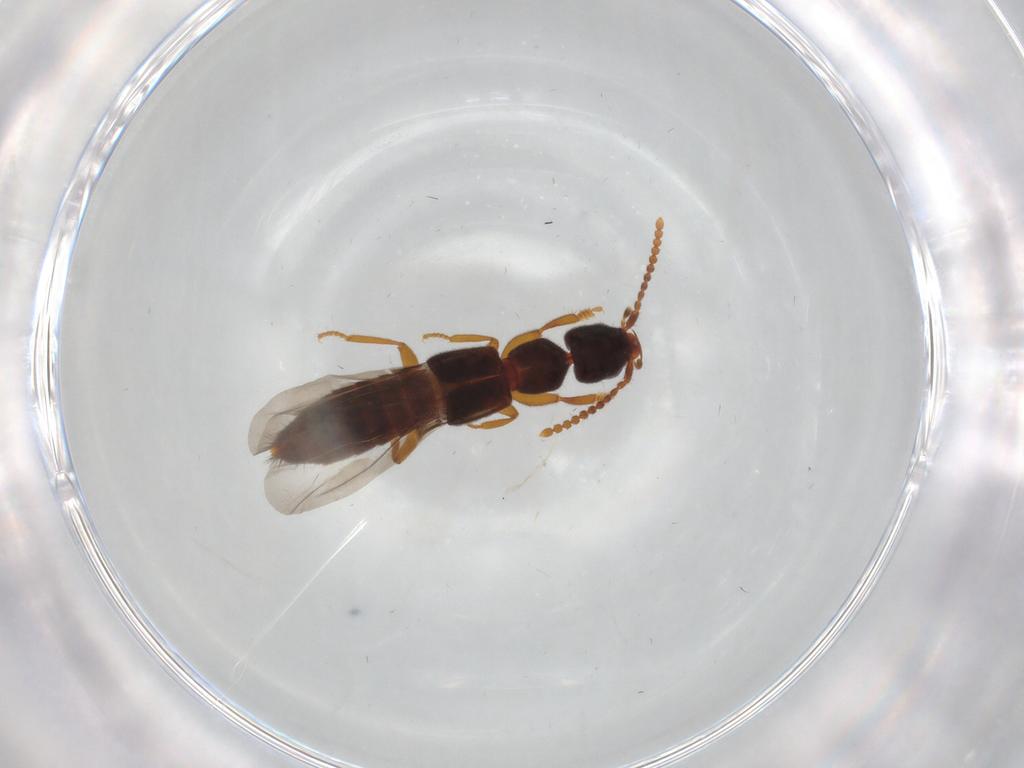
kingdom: Animalia
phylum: Arthropoda
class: Insecta
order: Coleoptera
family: Staphylinidae
